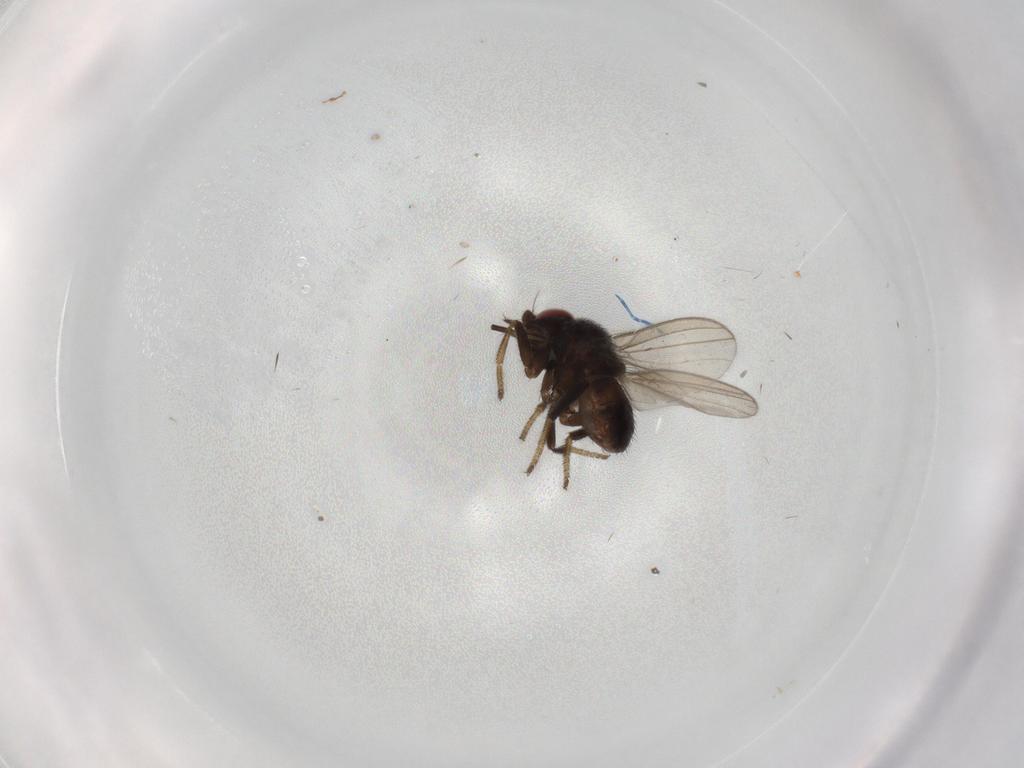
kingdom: Animalia
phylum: Arthropoda
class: Insecta
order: Diptera
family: Milichiidae
